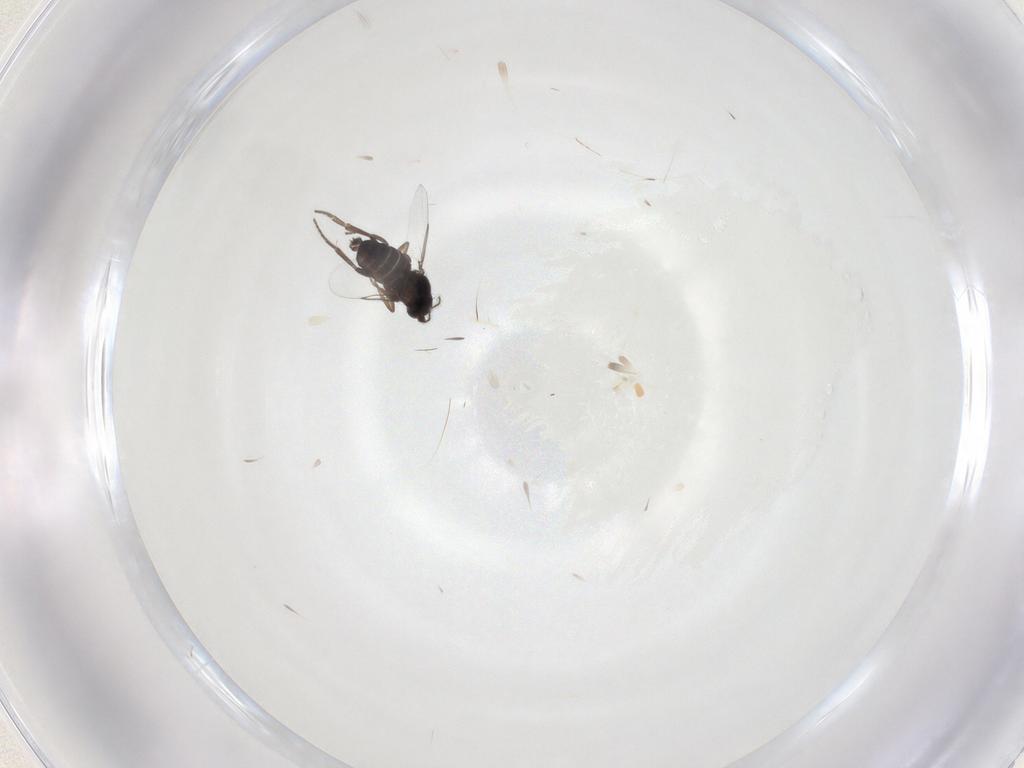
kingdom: Animalia
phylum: Arthropoda
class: Insecta
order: Diptera
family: Phoridae
